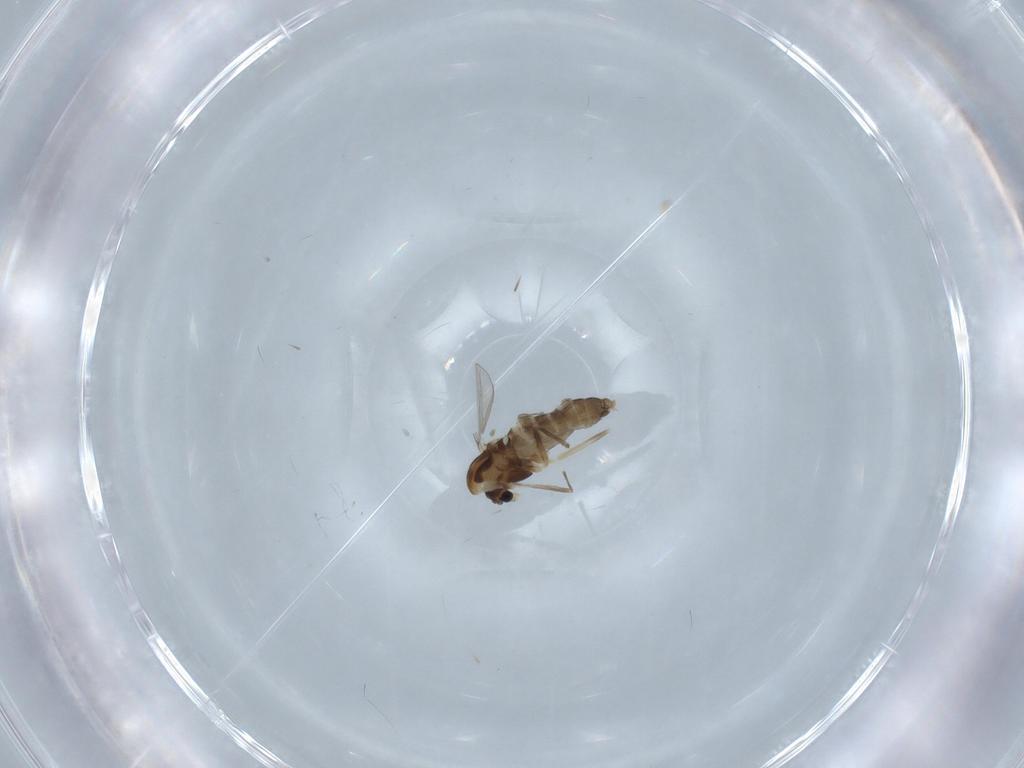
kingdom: Animalia
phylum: Arthropoda
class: Insecta
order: Diptera
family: Chironomidae
